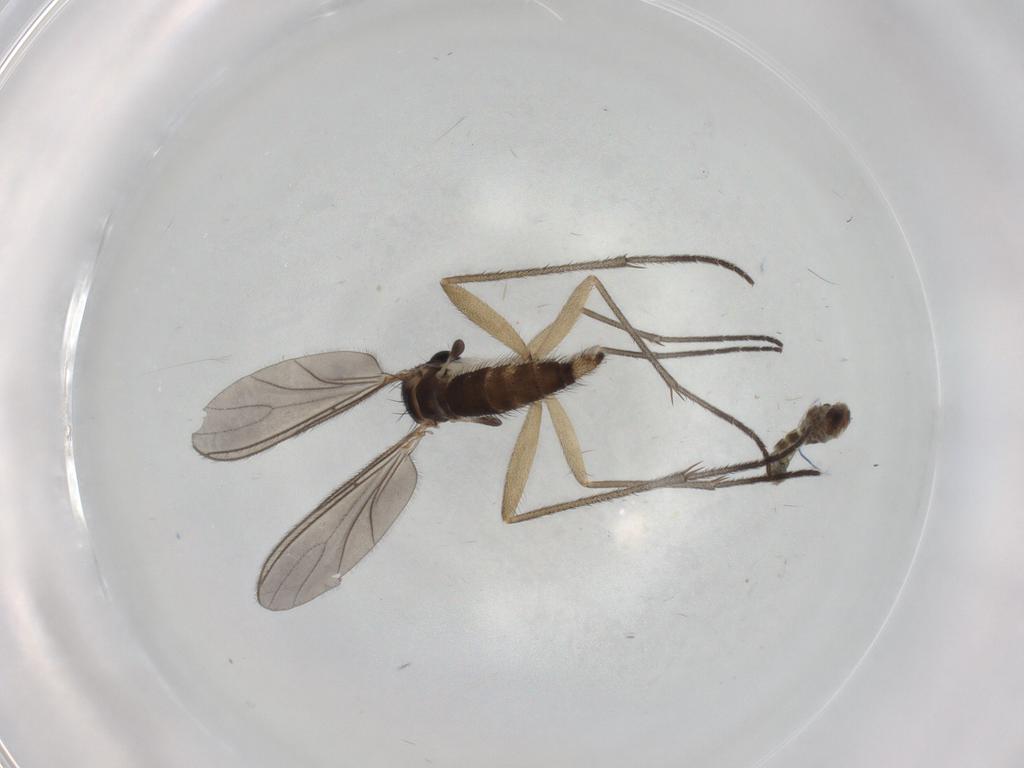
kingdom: Animalia
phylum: Arthropoda
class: Insecta
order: Diptera
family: Sciaridae
